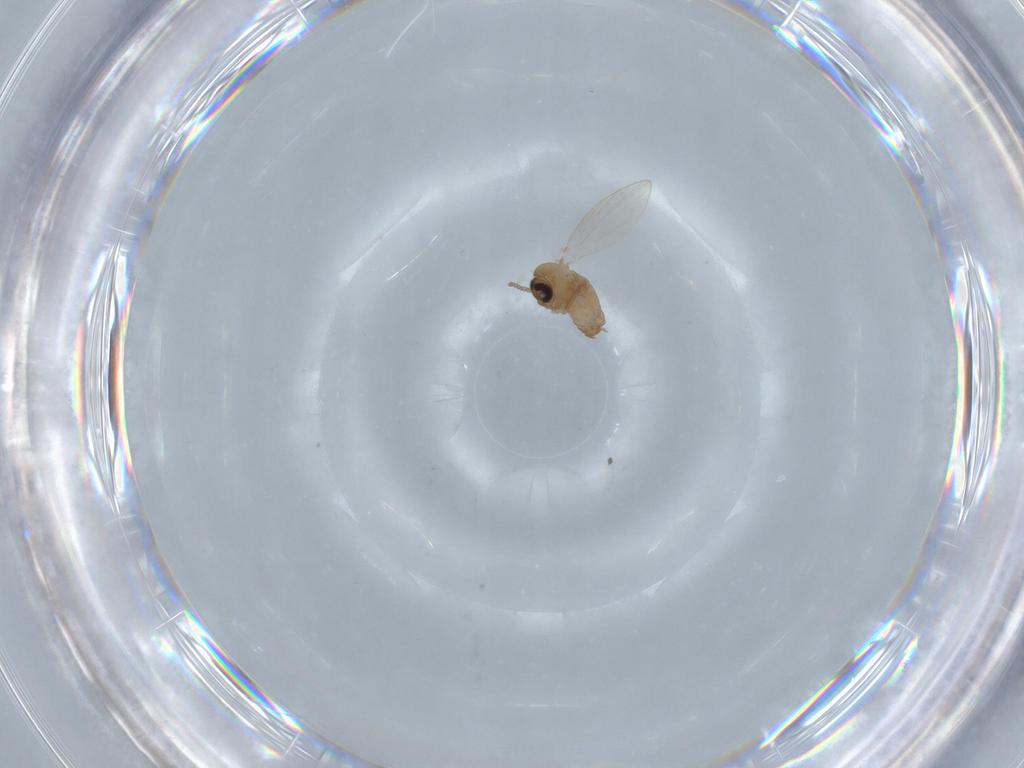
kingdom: Animalia
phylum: Arthropoda
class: Insecta
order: Diptera
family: Psychodidae
